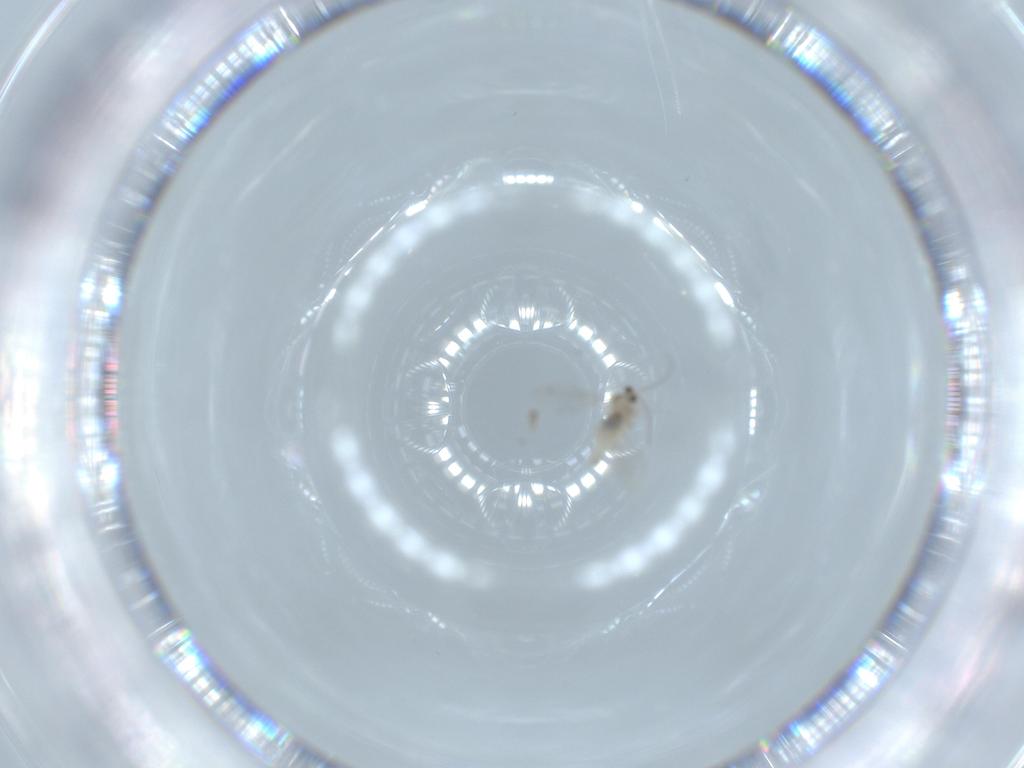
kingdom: Animalia
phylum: Arthropoda
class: Insecta
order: Diptera
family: Cecidomyiidae
